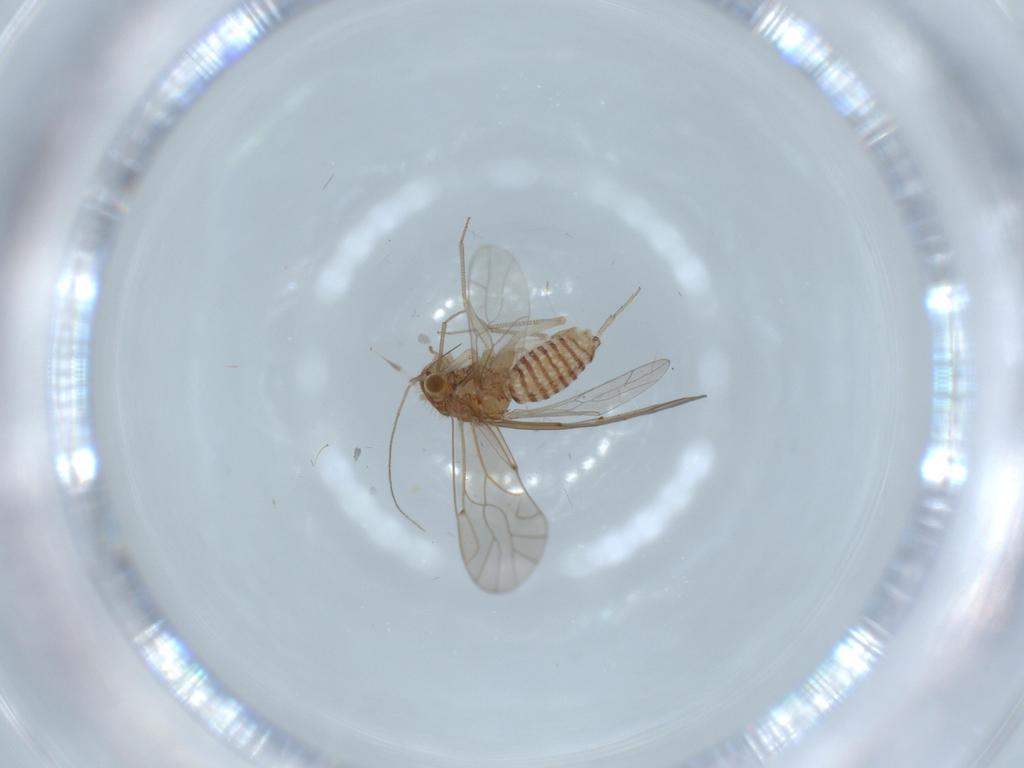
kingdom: Animalia
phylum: Arthropoda
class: Insecta
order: Psocodea
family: Lachesillidae
